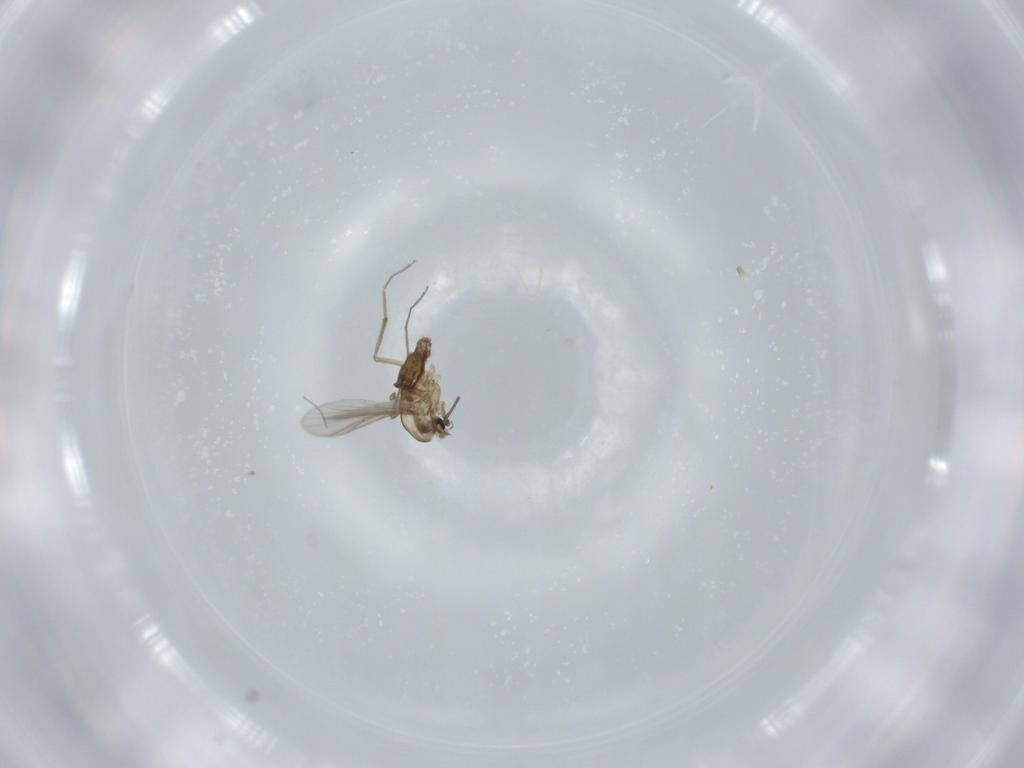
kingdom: Animalia
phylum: Arthropoda
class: Insecta
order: Diptera
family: Chironomidae
